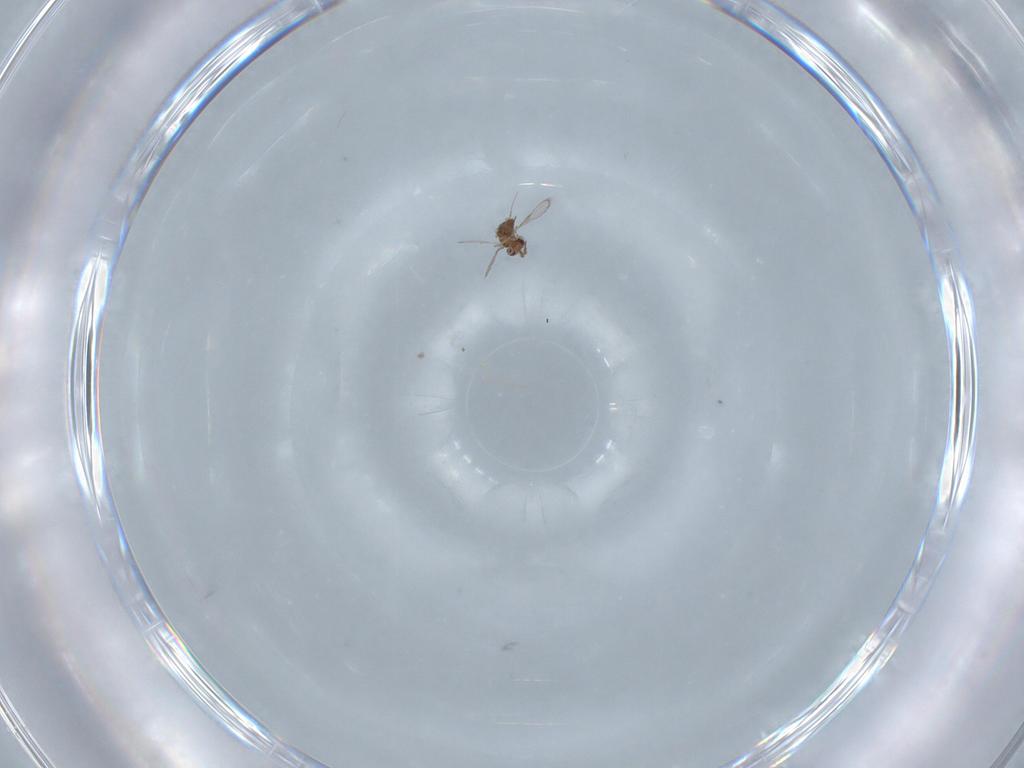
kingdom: Animalia
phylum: Arthropoda
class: Insecta
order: Hymenoptera
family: Trichogrammatidae
